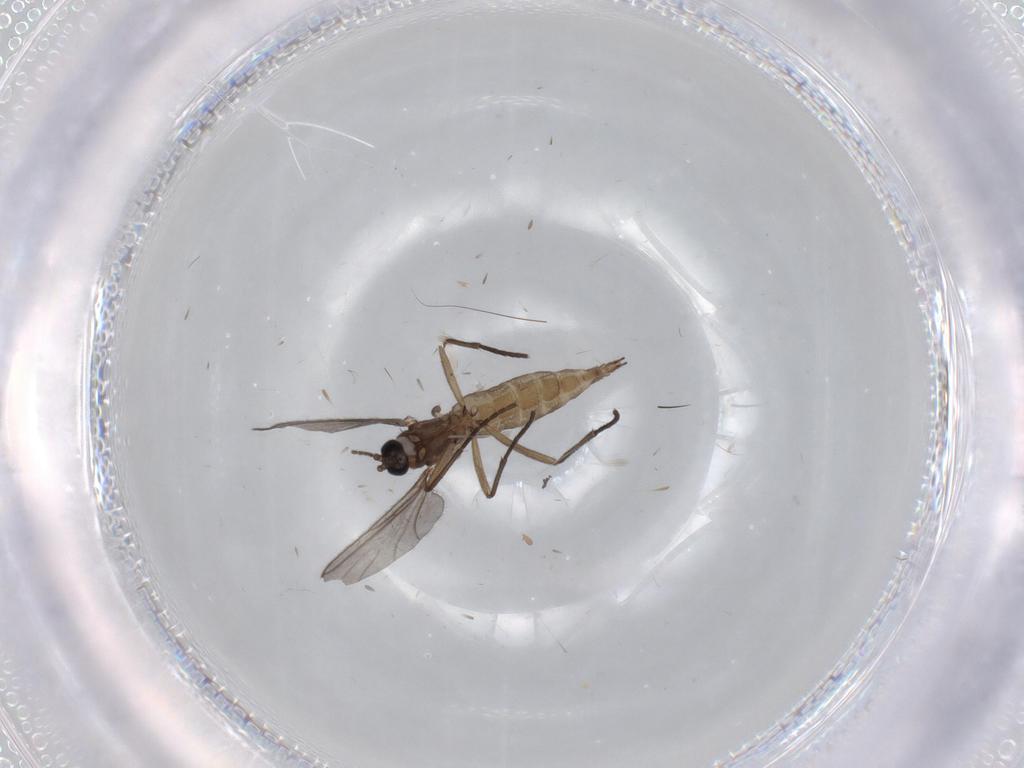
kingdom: Animalia
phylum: Arthropoda
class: Insecta
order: Diptera
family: Sciaridae
